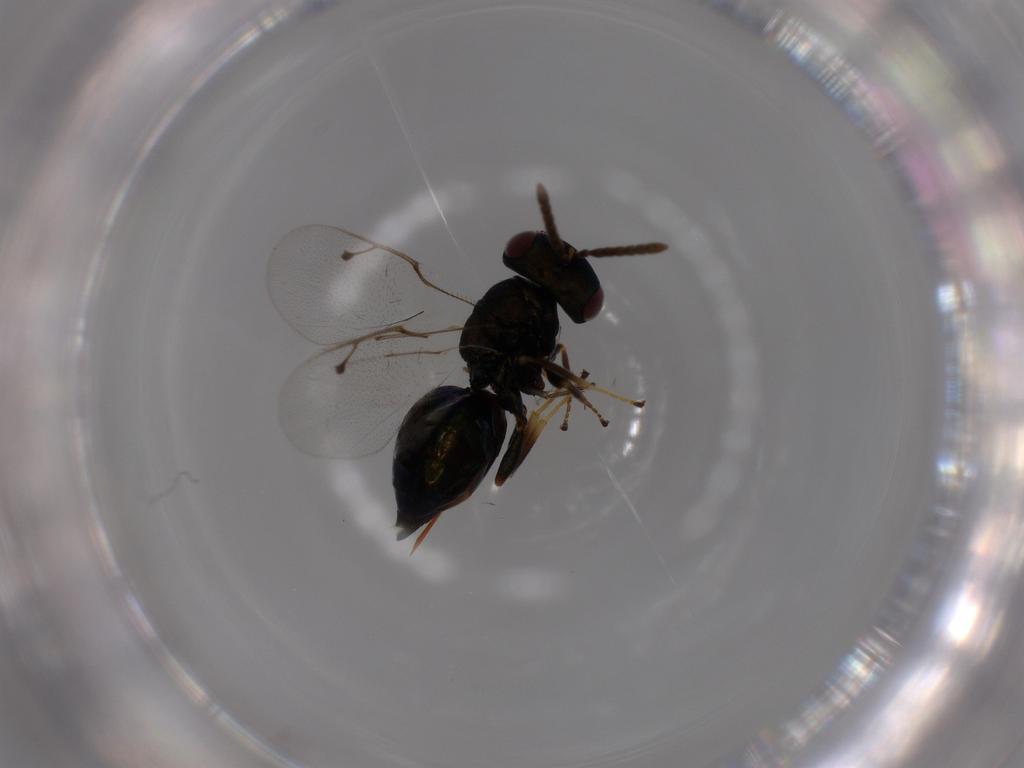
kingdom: Animalia
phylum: Arthropoda
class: Insecta
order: Hymenoptera
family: Pteromalidae
